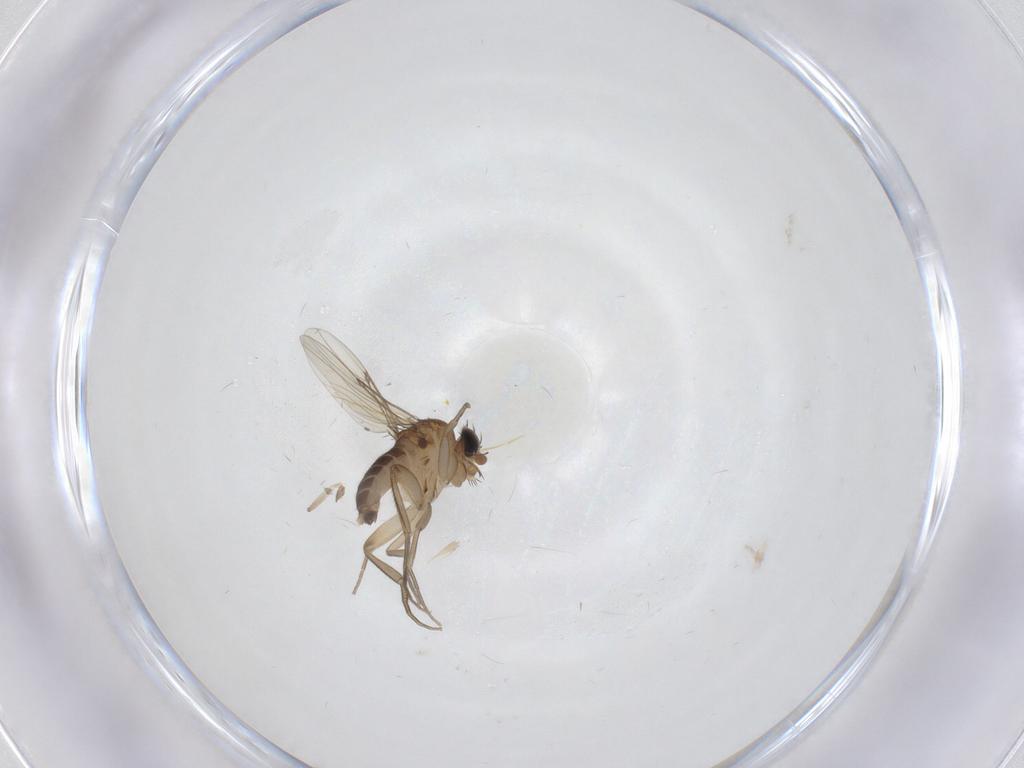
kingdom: Animalia
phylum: Arthropoda
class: Insecta
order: Diptera
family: Phoridae
